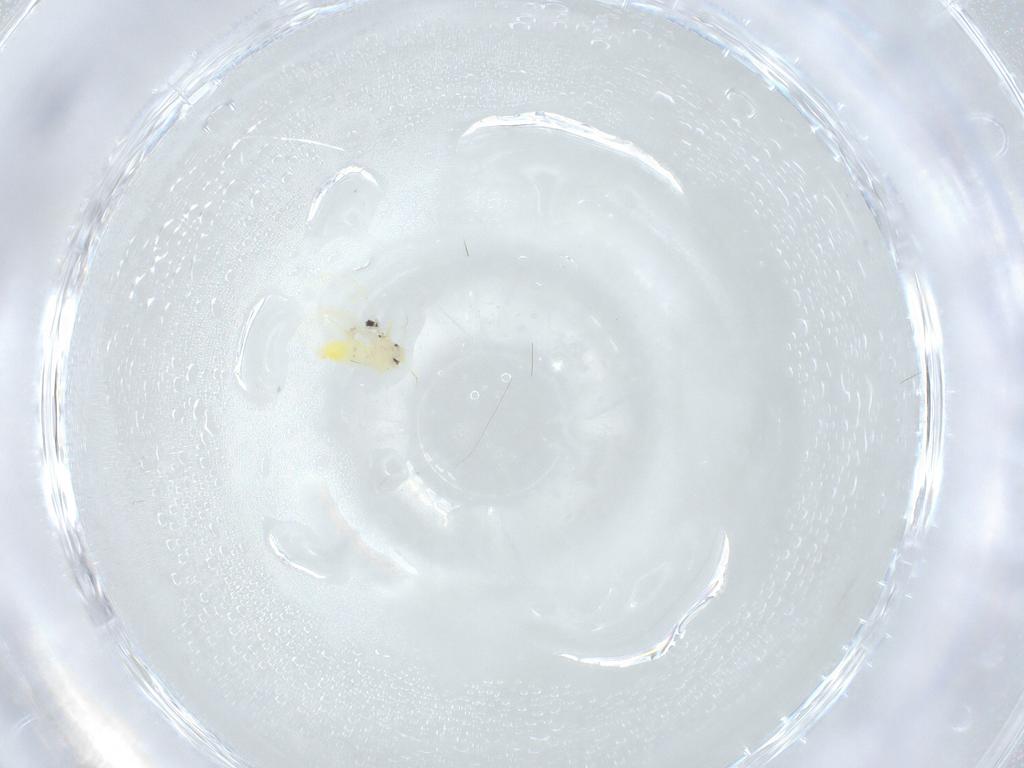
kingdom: Animalia
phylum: Arthropoda
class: Insecta
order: Hemiptera
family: Aleyrodidae
